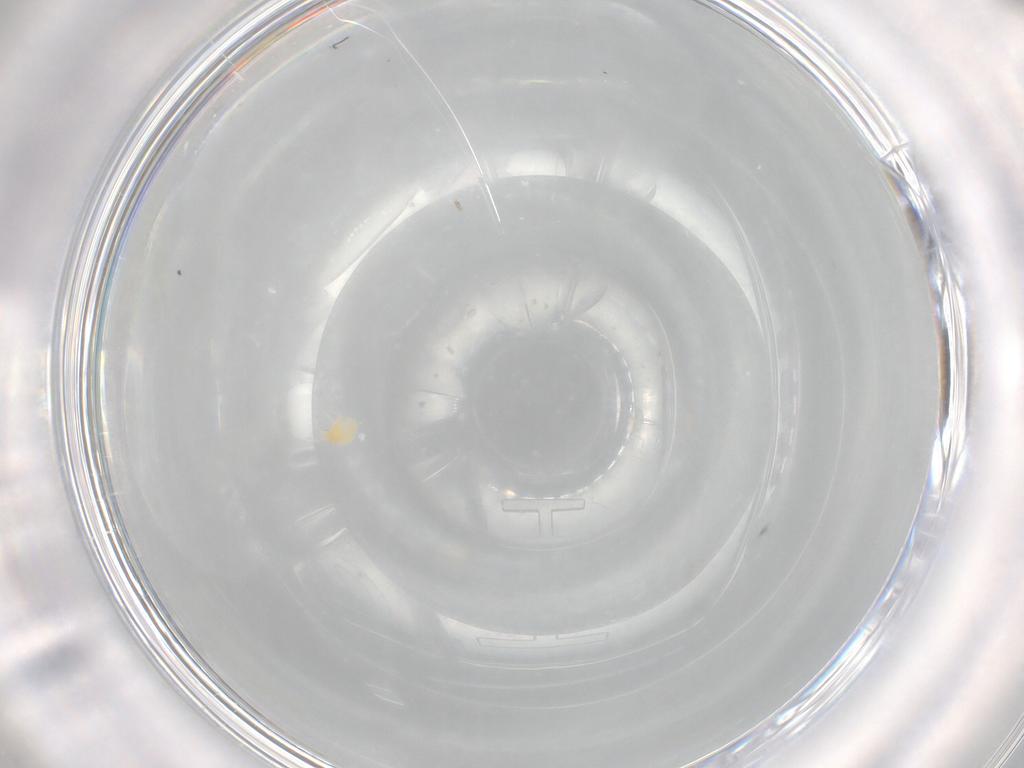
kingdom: Animalia
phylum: Arthropoda
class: Arachnida
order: Trombidiformes
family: Tetranychidae
